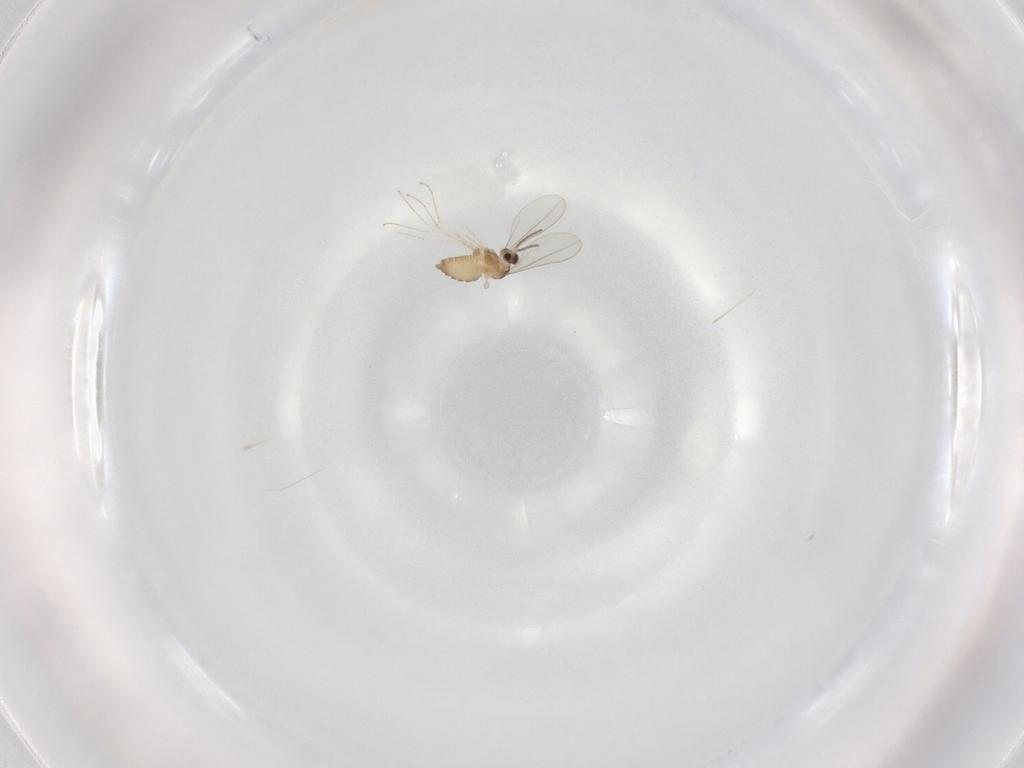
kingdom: Animalia
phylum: Arthropoda
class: Insecta
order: Diptera
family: Cecidomyiidae
